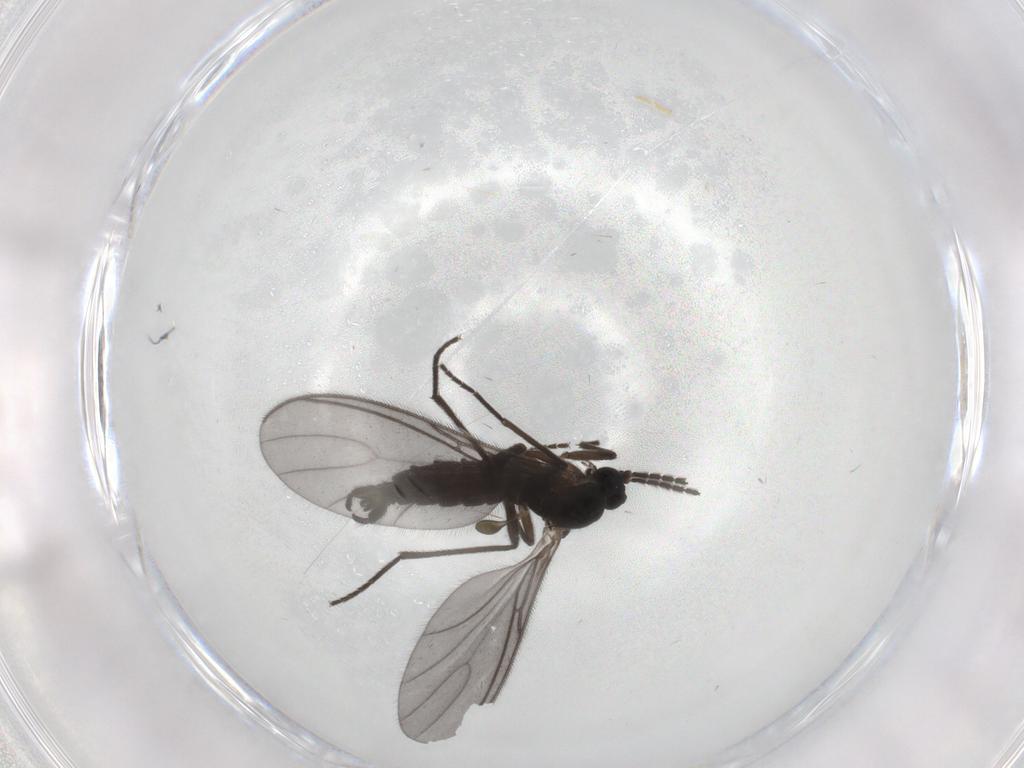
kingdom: Animalia
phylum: Arthropoda
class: Insecta
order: Diptera
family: Sciaridae
